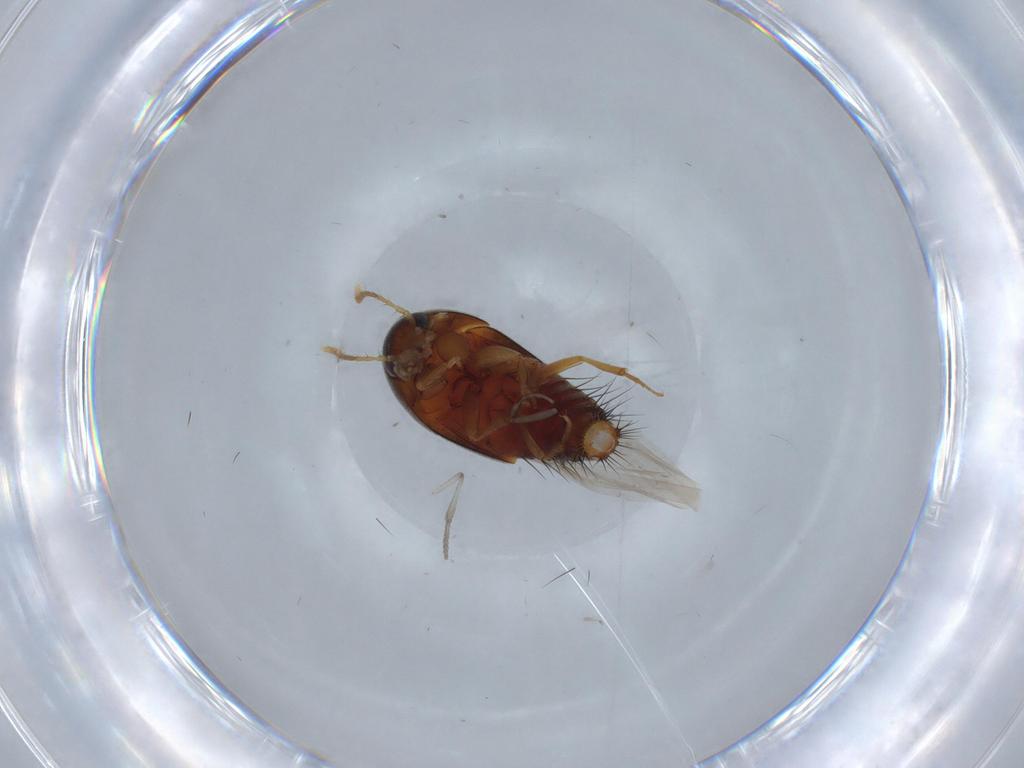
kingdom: Animalia
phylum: Arthropoda
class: Insecta
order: Coleoptera
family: Staphylinidae
